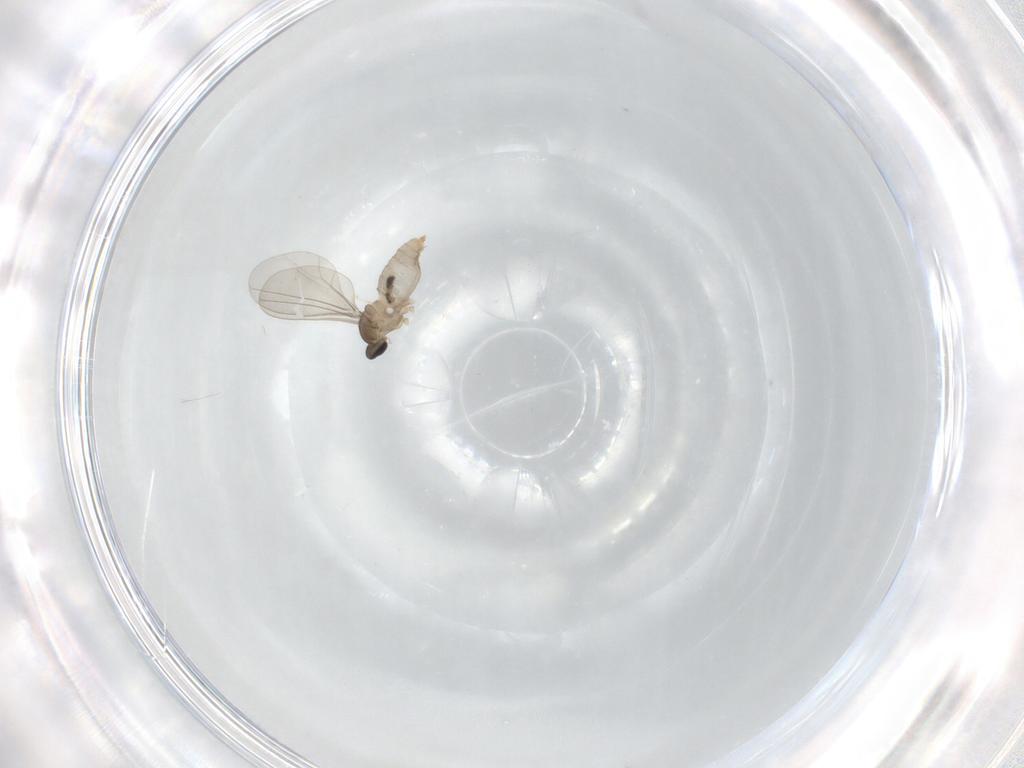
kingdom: Animalia
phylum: Arthropoda
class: Insecta
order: Diptera
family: Cecidomyiidae
